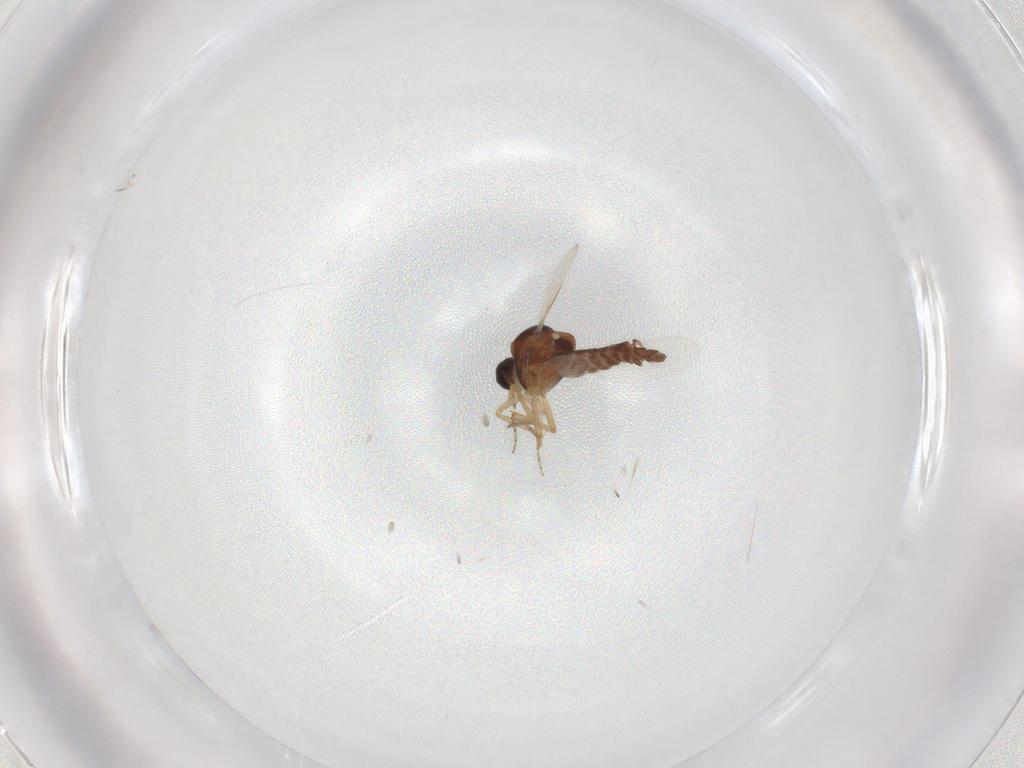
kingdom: Animalia
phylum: Arthropoda
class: Insecta
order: Diptera
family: Ceratopogonidae
